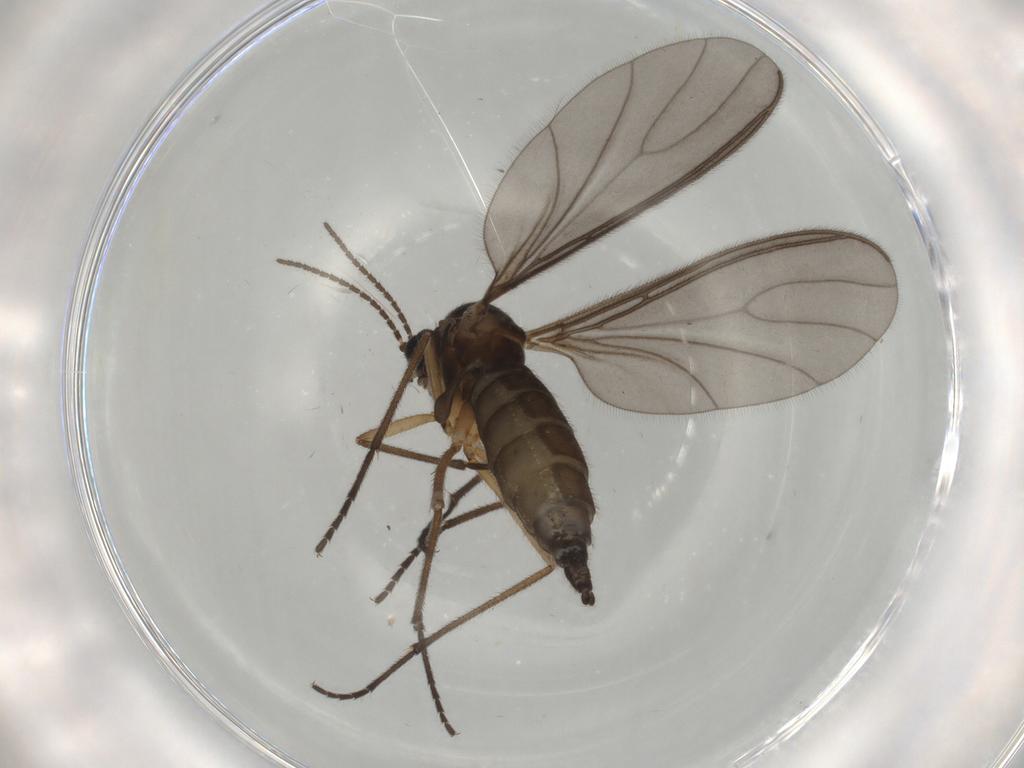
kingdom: Animalia
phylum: Arthropoda
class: Insecta
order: Diptera
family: Sciaridae
